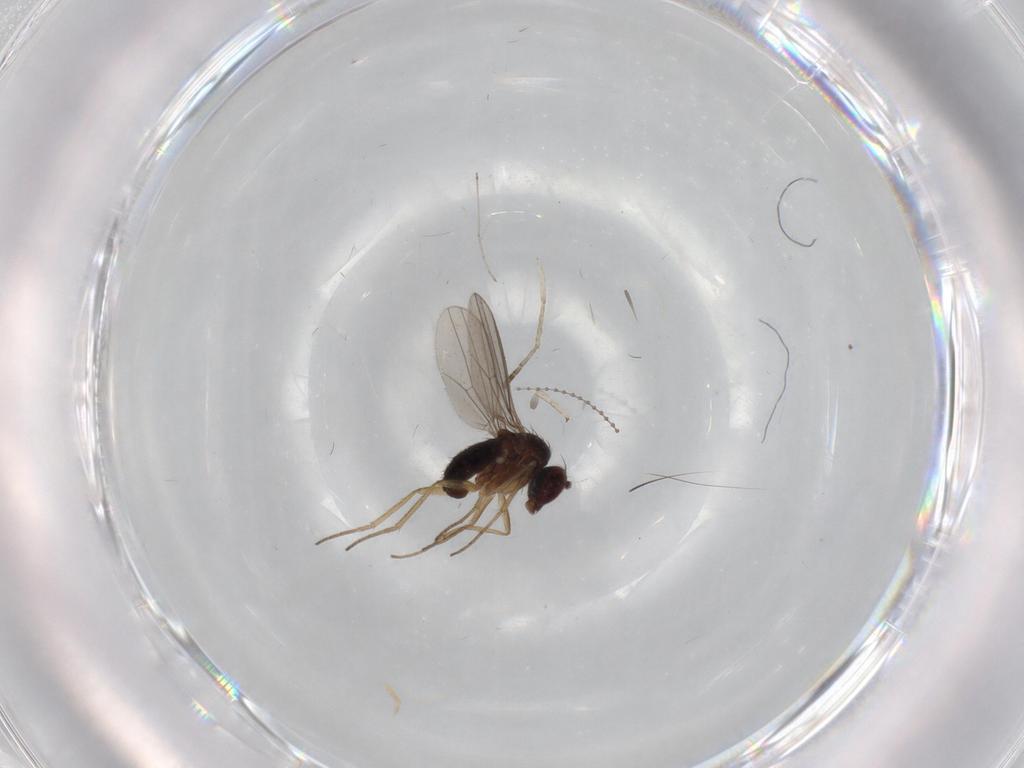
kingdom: Animalia
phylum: Arthropoda
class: Insecta
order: Diptera
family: Dolichopodidae
